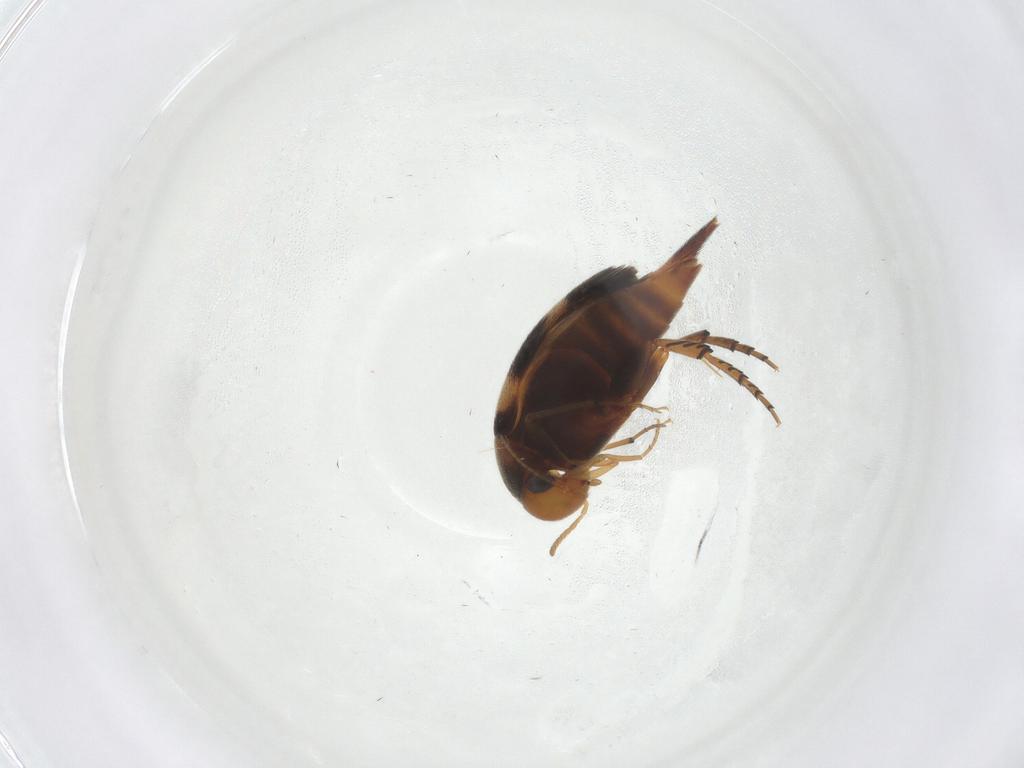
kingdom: Animalia
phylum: Arthropoda
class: Insecta
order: Coleoptera
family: Mordellidae
